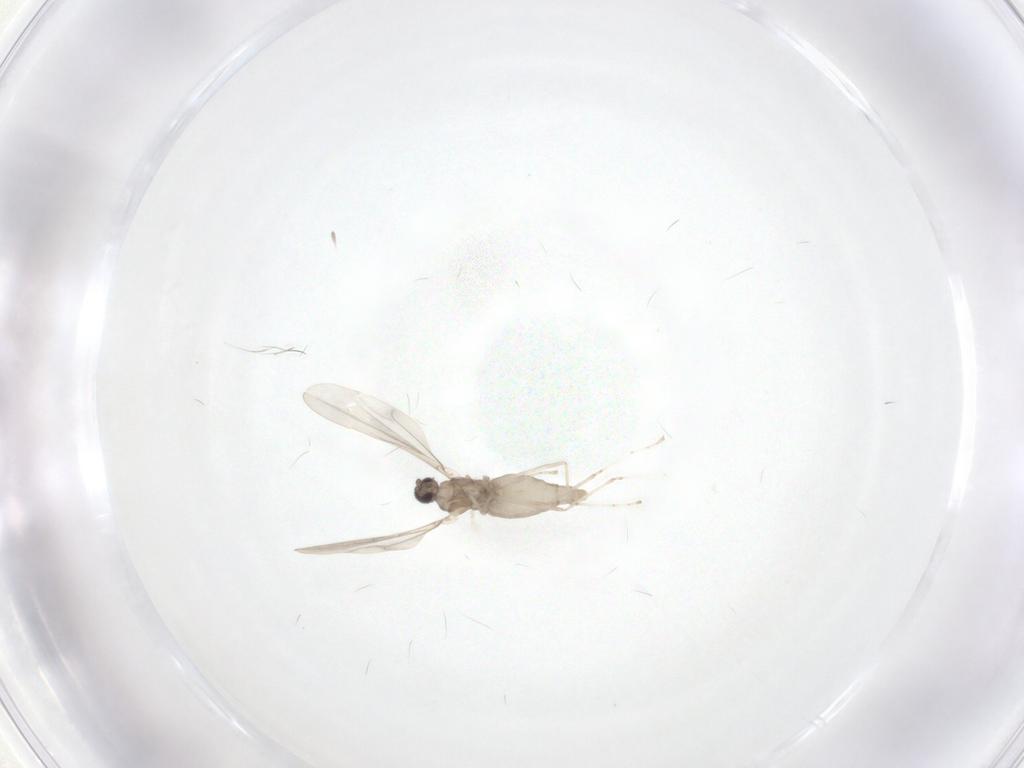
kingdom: Animalia
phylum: Arthropoda
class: Insecta
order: Diptera
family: Cecidomyiidae
